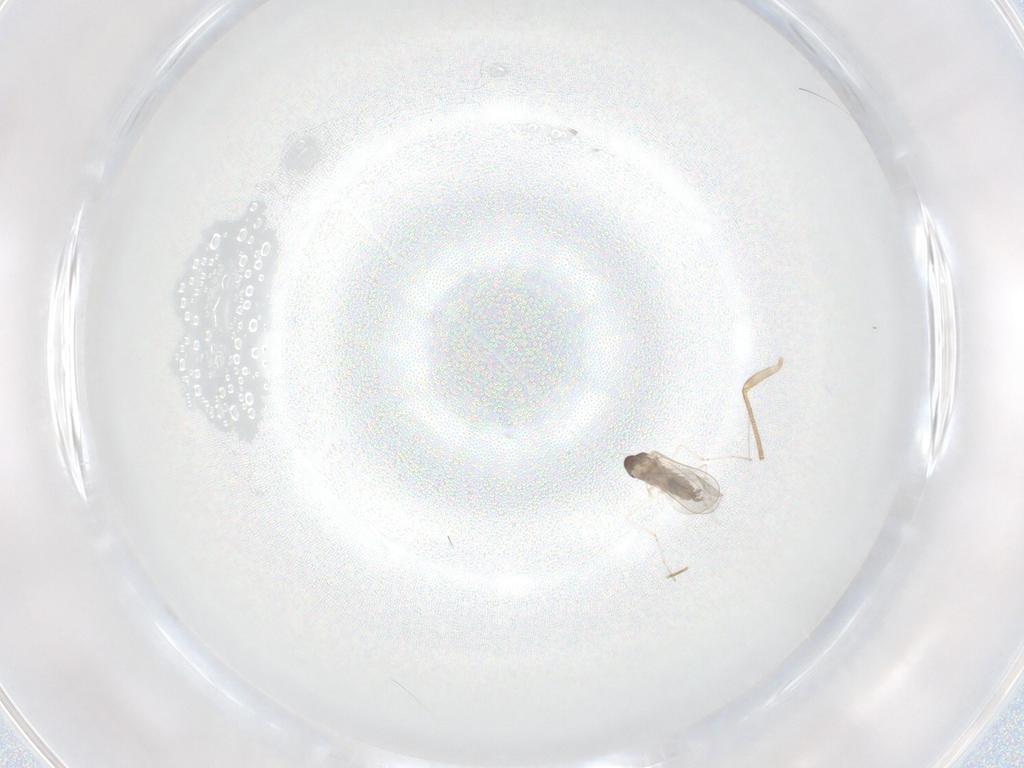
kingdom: Animalia
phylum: Arthropoda
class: Insecta
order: Diptera
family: Cecidomyiidae
